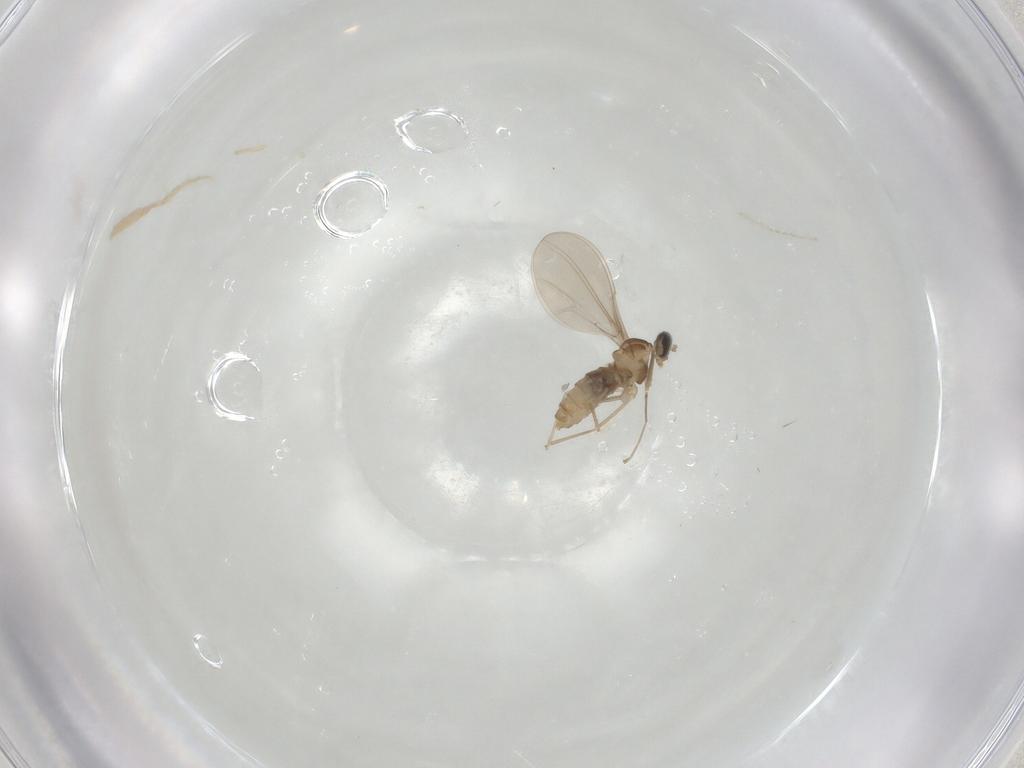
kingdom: Animalia
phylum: Arthropoda
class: Insecta
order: Diptera
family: Cecidomyiidae
